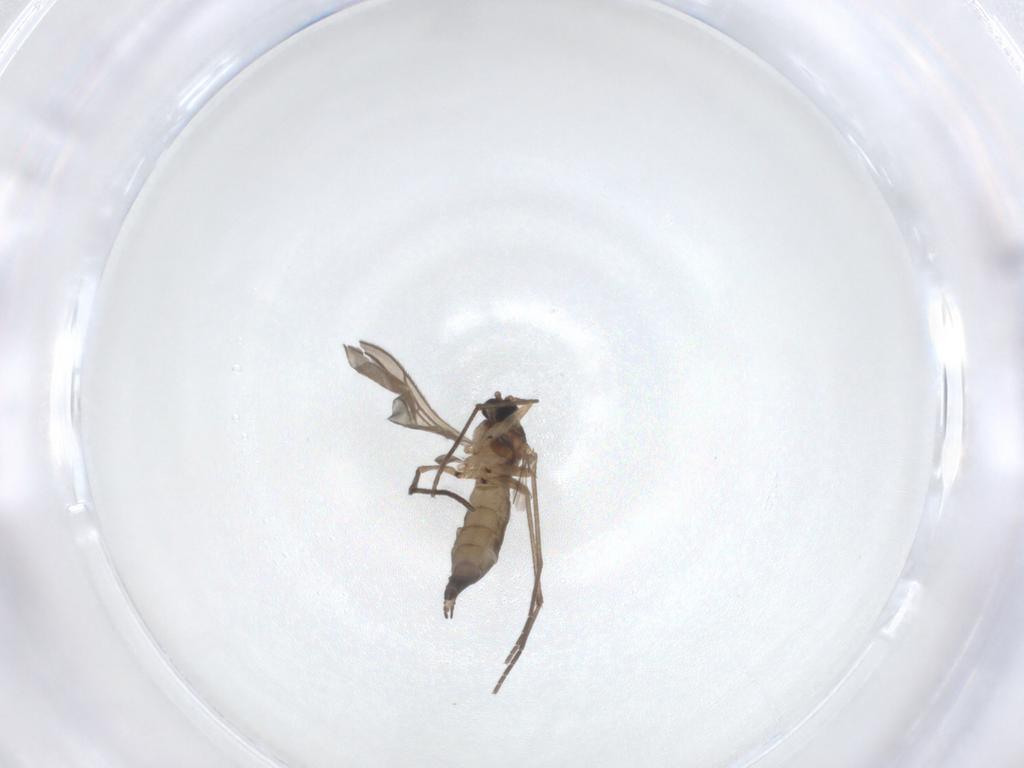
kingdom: Animalia
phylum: Arthropoda
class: Insecta
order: Diptera
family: Sciaridae
